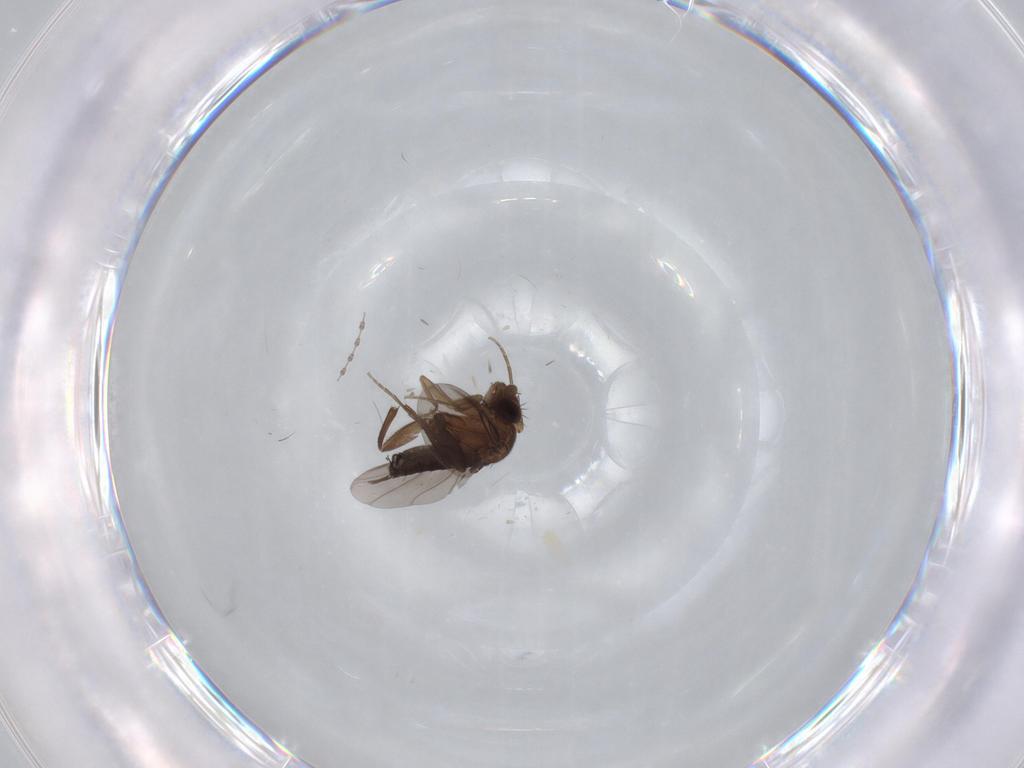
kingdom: Animalia
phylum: Arthropoda
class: Insecta
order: Diptera
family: Phoridae
